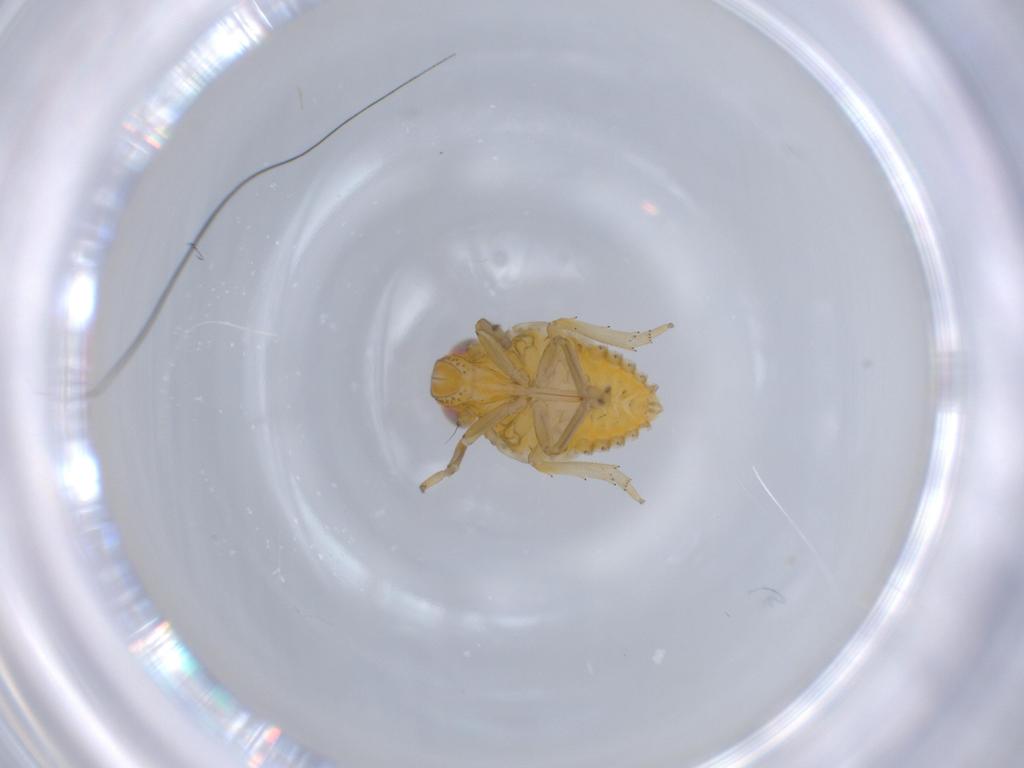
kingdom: Animalia
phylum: Arthropoda
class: Insecta
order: Hemiptera
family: Issidae
